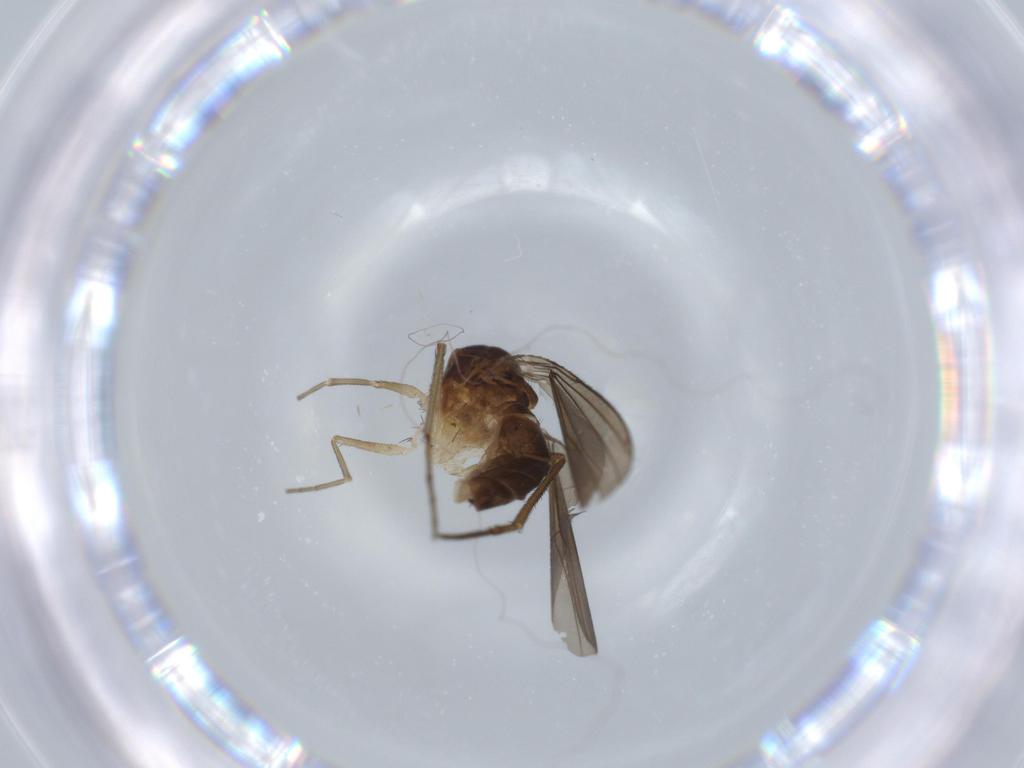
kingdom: Animalia
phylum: Arthropoda
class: Insecta
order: Diptera
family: Dolichopodidae
